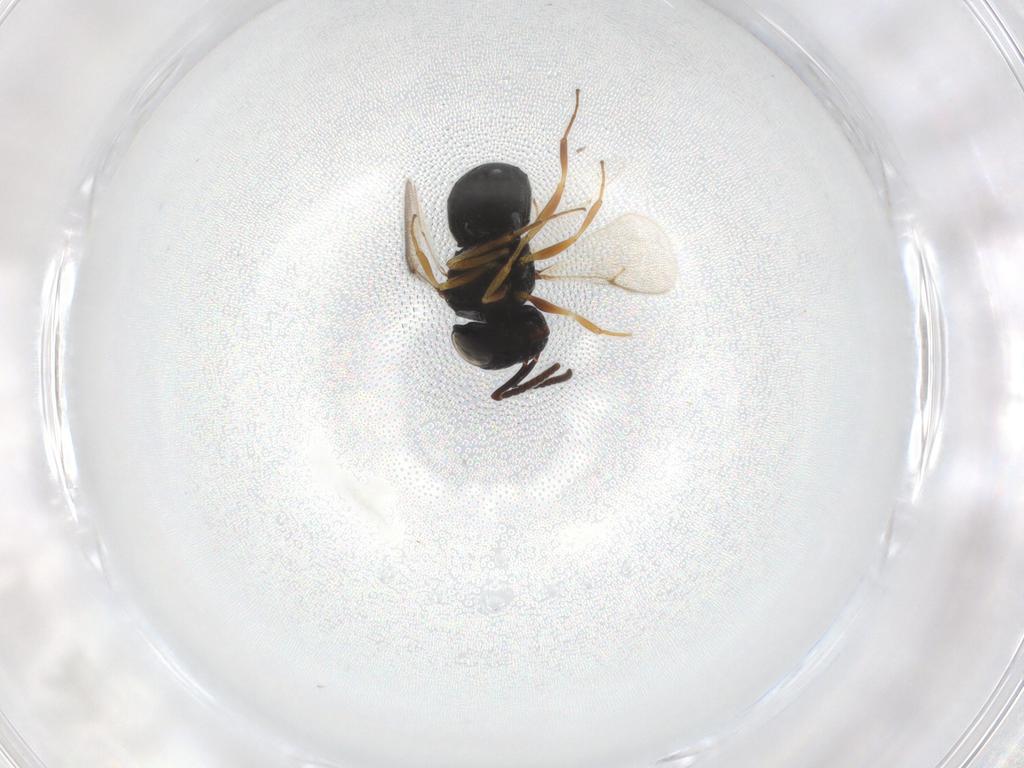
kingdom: Animalia
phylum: Arthropoda
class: Insecta
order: Hymenoptera
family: Scelionidae
